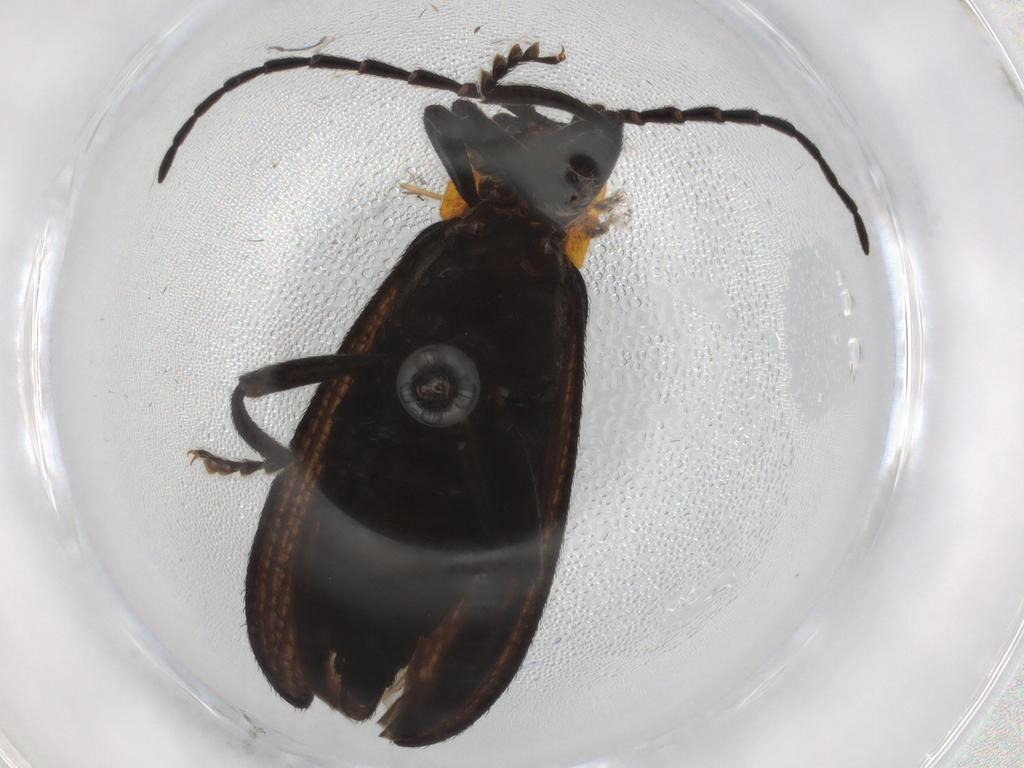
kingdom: Animalia
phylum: Arthropoda
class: Insecta
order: Coleoptera
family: Lycidae
